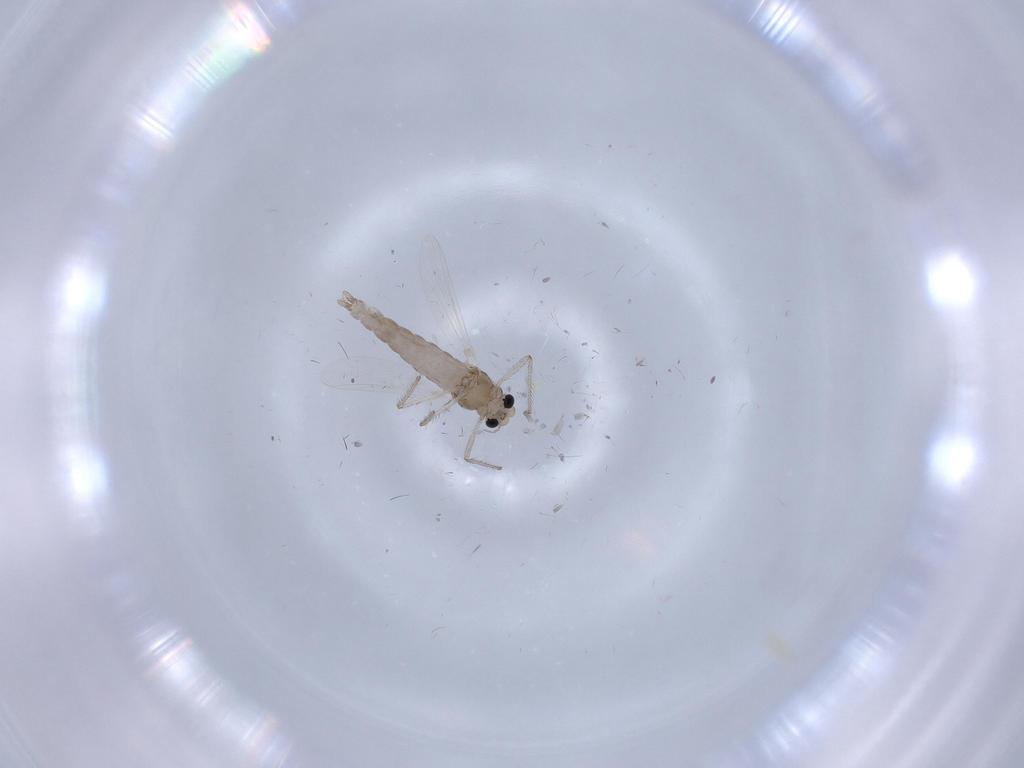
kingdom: Animalia
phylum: Arthropoda
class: Insecta
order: Diptera
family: Chironomidae
